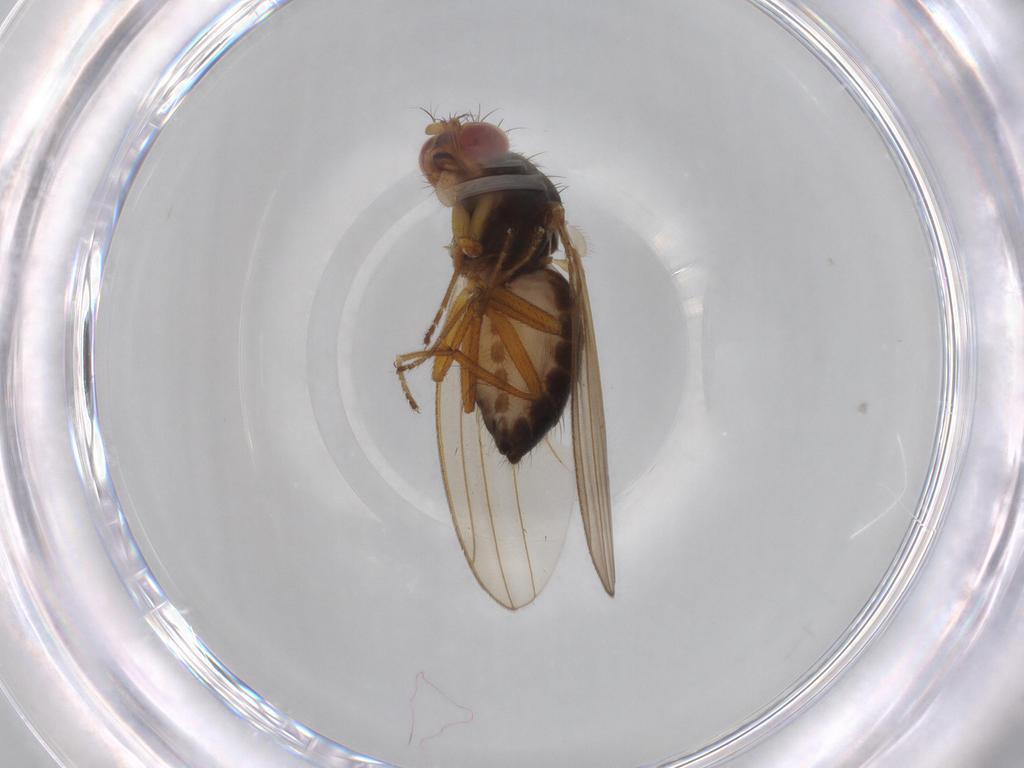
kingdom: Animalia
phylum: Arthropoda
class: Insecta
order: Diptera
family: Drosophilidae
